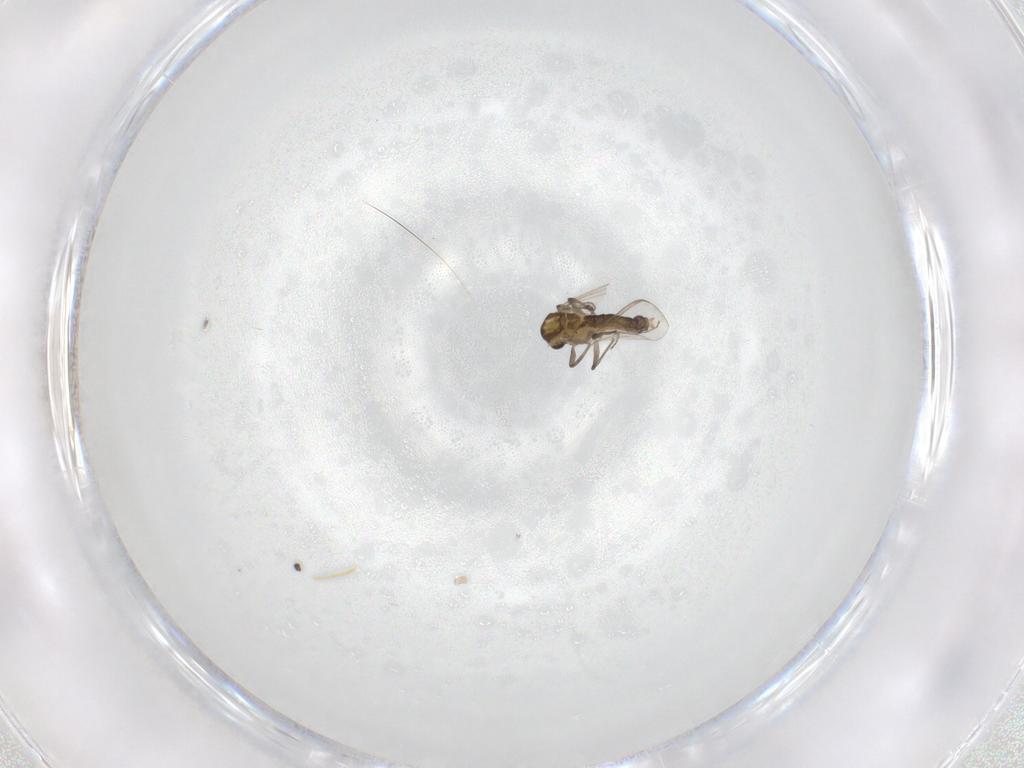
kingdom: Animalia
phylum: Arthropoda
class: Insecta
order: Diptera
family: Chironomidae
